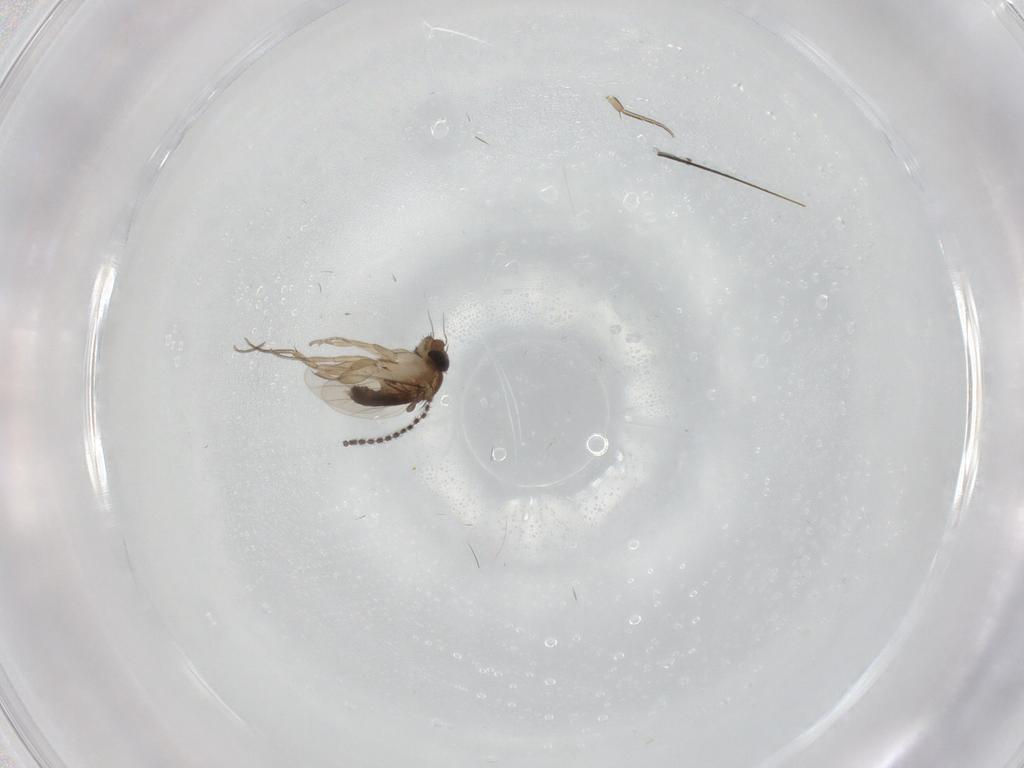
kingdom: Animalia
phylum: Arthropoda
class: Insecta
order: Diptera
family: Phoridae
